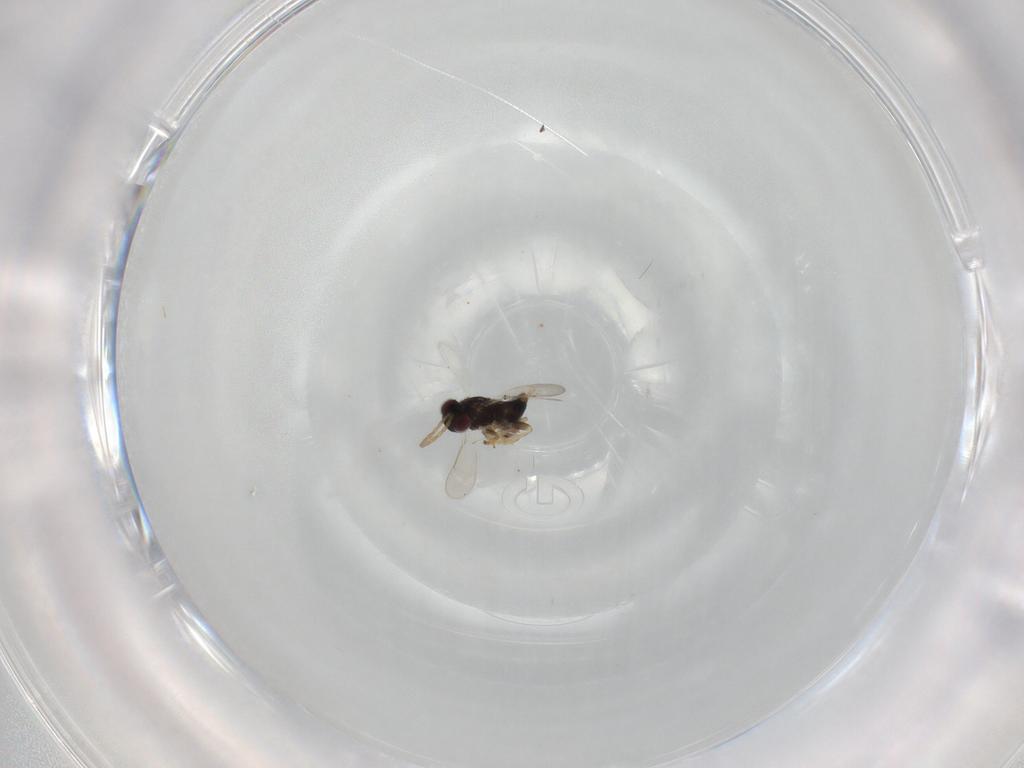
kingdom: Animalia
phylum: Arthropoda
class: Insecta
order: Hymenoptera
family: Aphelinidae
